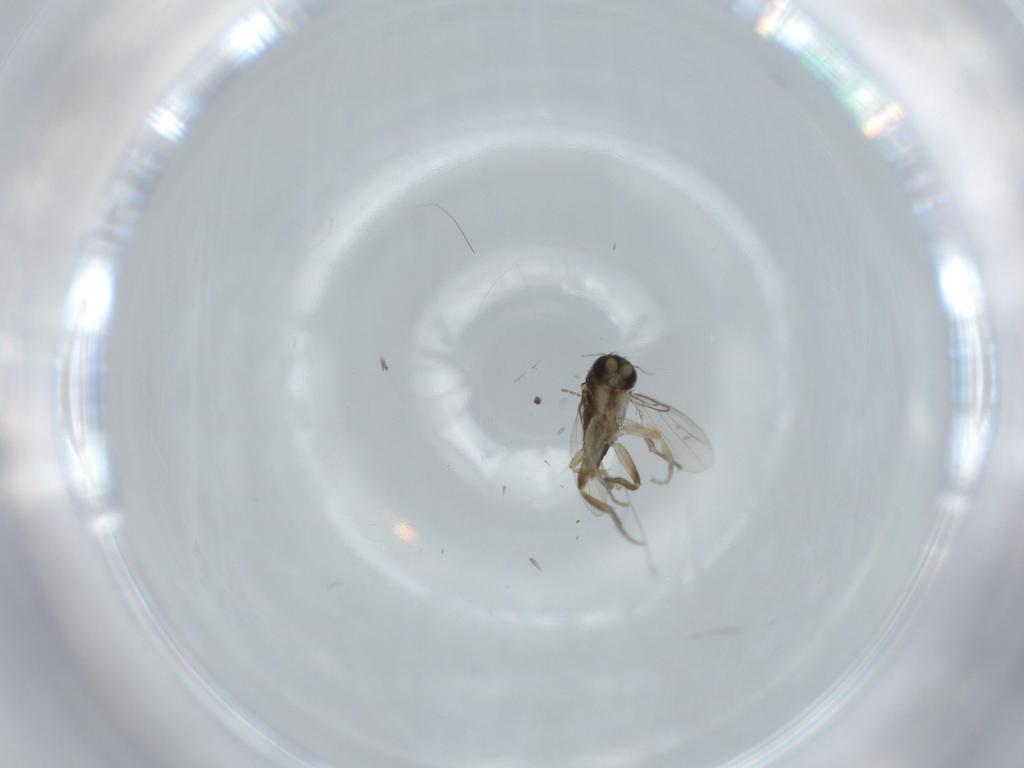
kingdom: Animalia
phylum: Arthropoda
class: Insecta
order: Diptera
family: Phoridae
